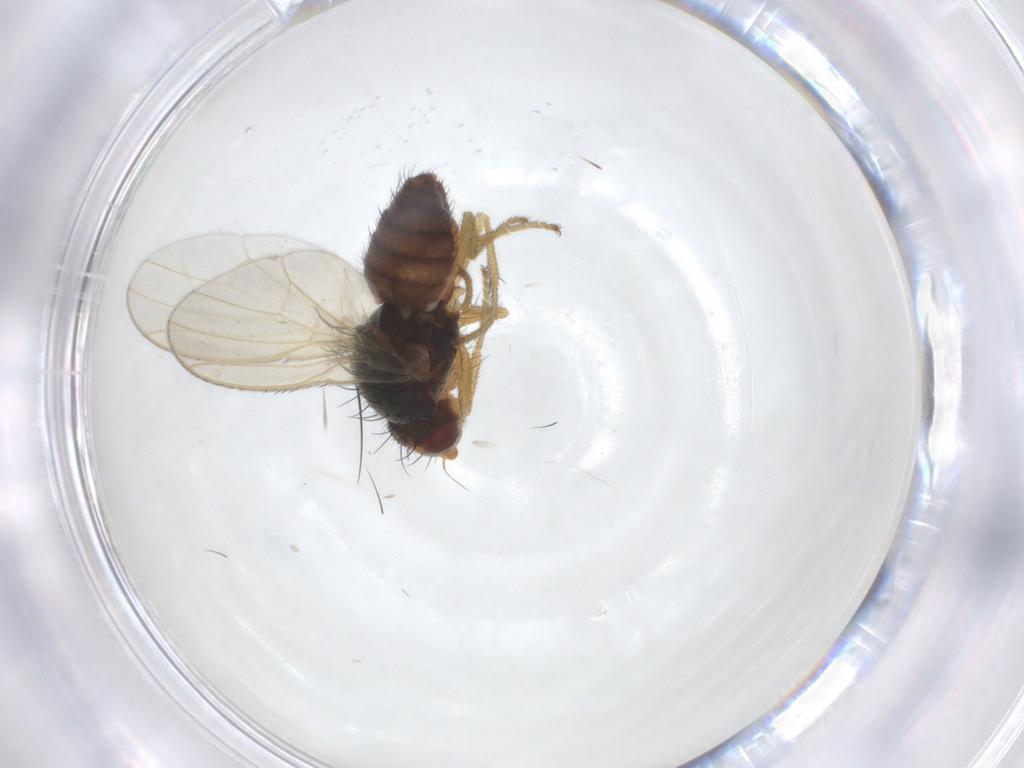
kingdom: Animalia
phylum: Arthropoda
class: Insecta
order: Diptera
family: Heleomyzidae
